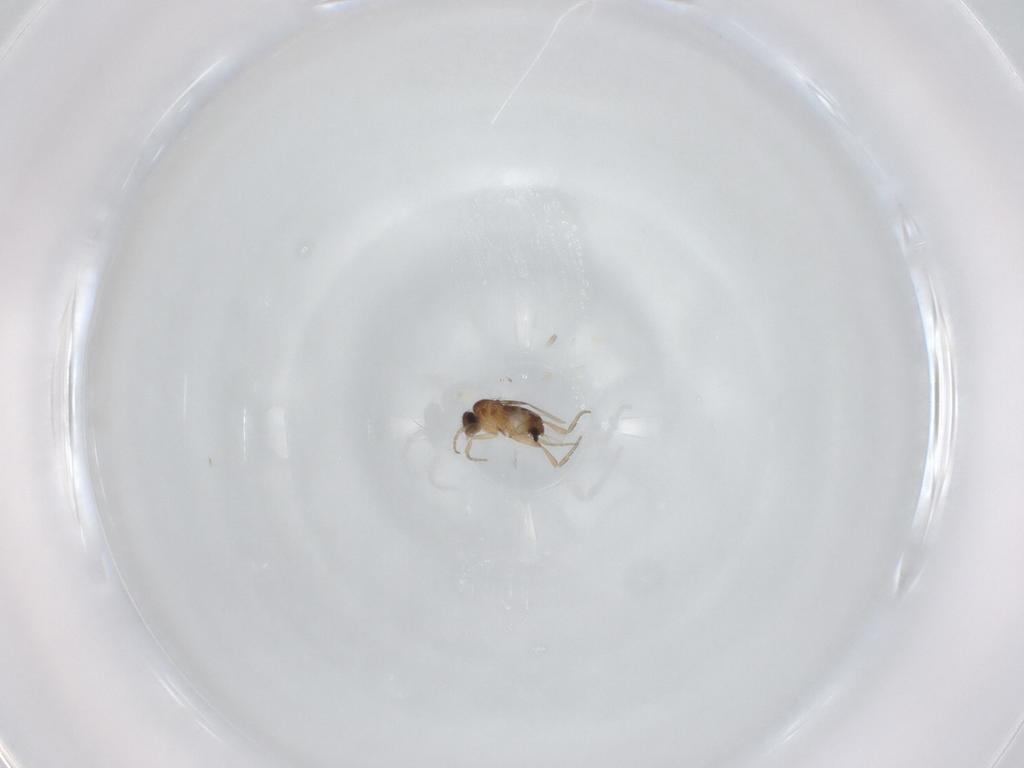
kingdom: Animalia
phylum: Arthropoda
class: Insecta
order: Diptera
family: Phoridae
